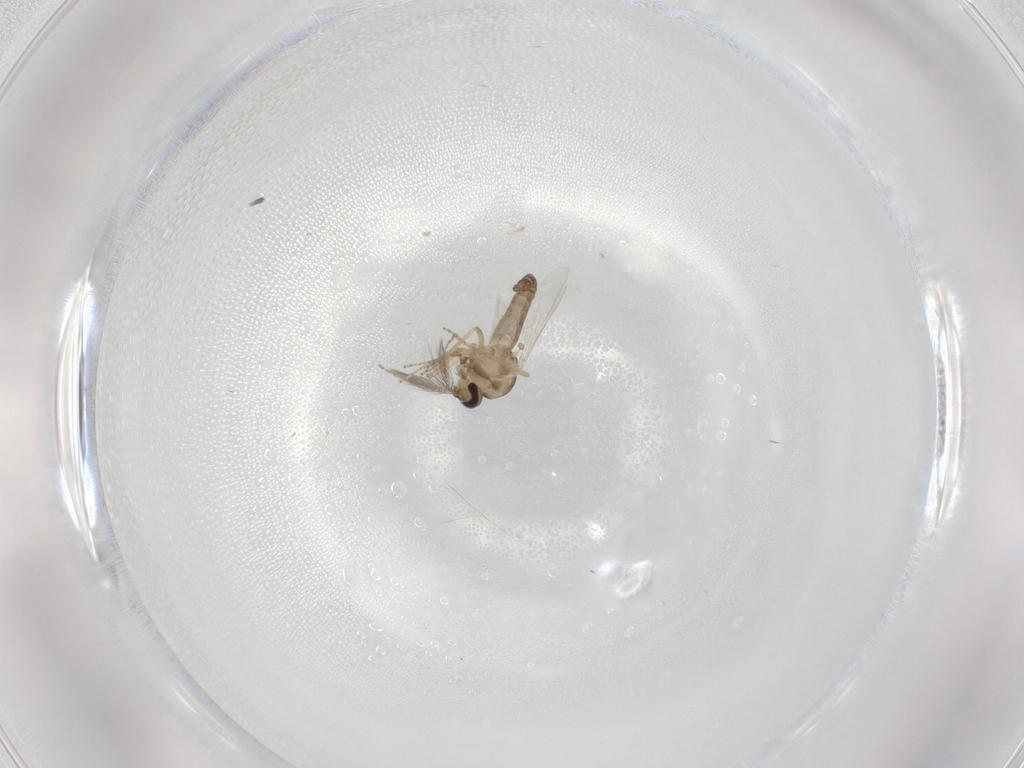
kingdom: Animalia
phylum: Arthropoda
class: Insecta
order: Diptera
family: Ceratopogonidae
